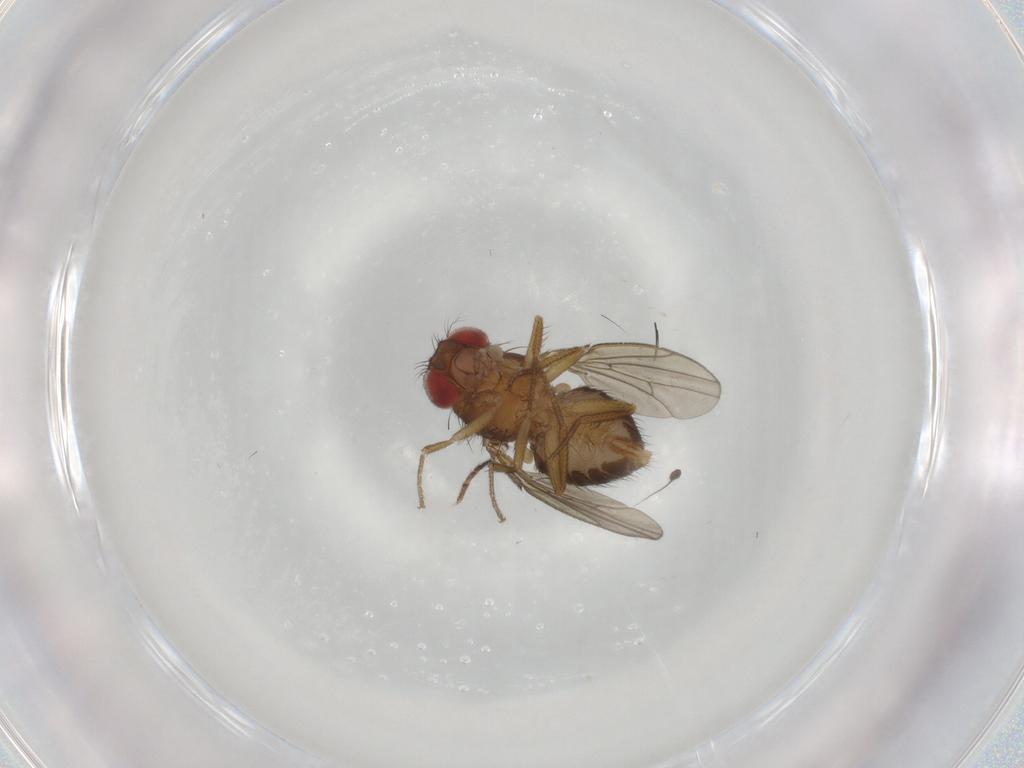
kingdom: Animalia
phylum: Arthropoda
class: Insecta
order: Diptera
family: Drosophilidae
